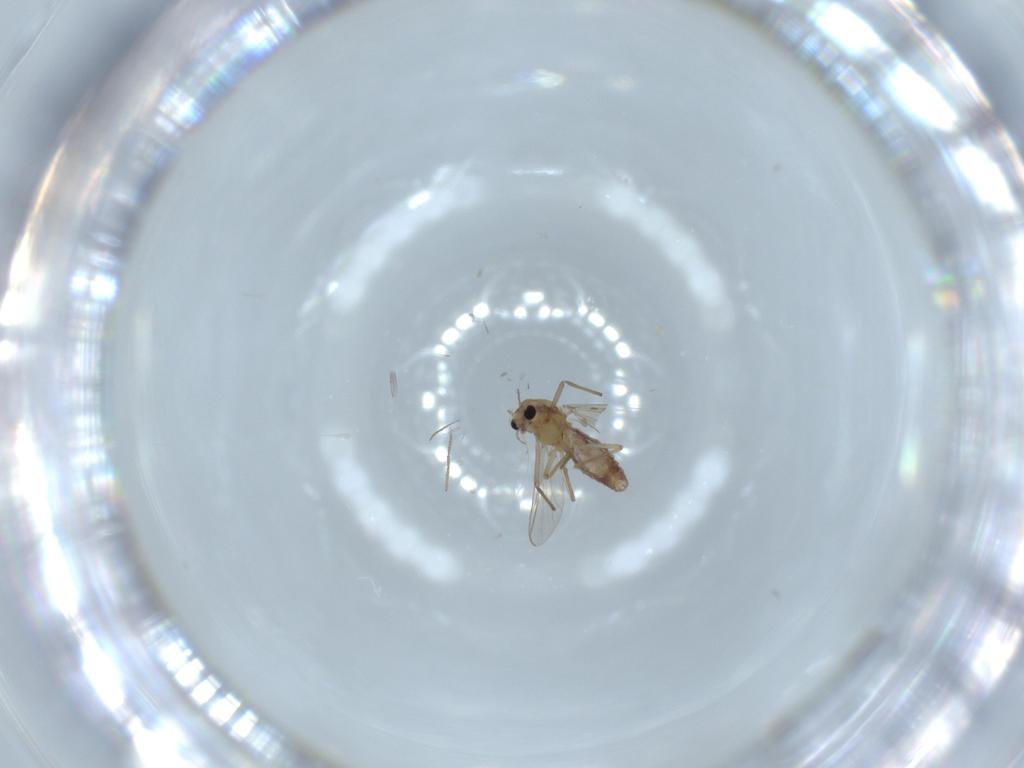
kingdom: Animalia
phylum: Arthropoda
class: Insecta
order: Diptera
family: Chironomidae
